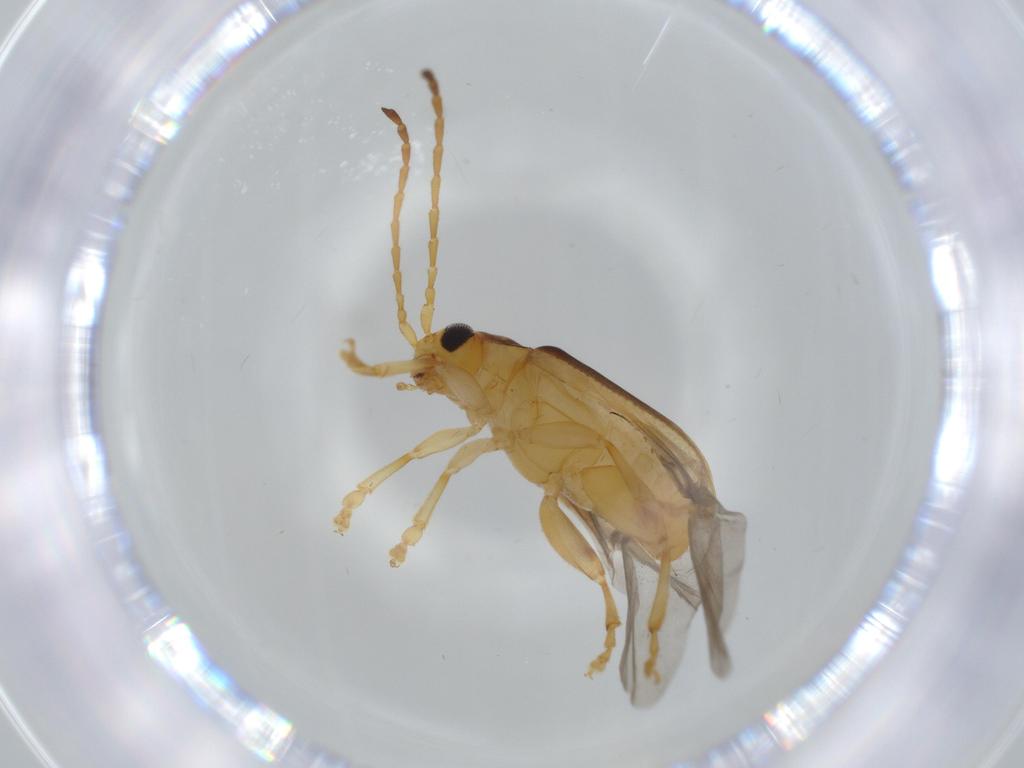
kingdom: Animalia
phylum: Arthropoda
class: Insecta
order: Coleoptera
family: Chrysomelidae
